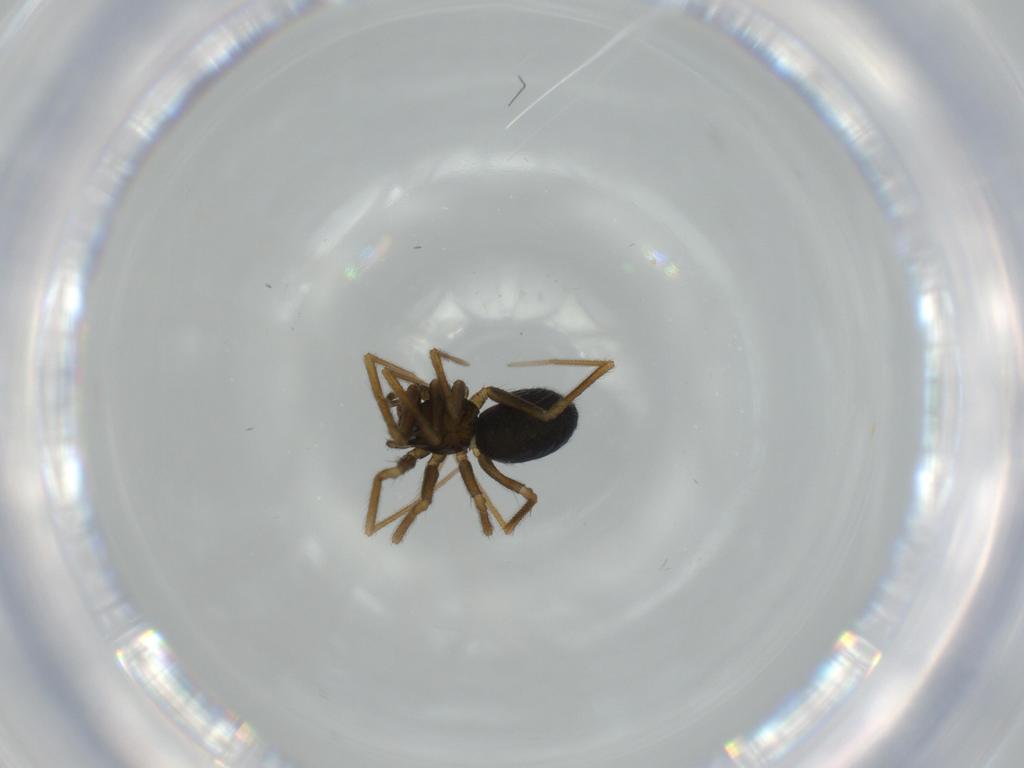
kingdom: Animalia
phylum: Arthropoda
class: Arachnida
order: Araneae
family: Linyphiidae
